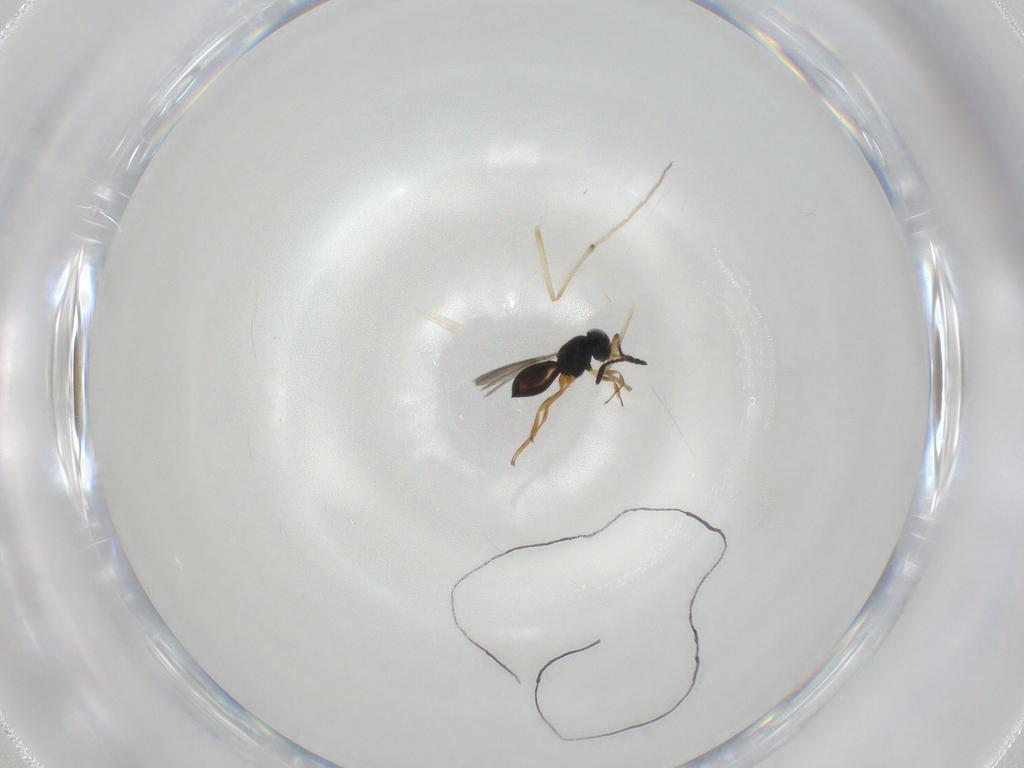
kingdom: Animalia
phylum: Arthropoda
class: Insecta
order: Hymenoptera
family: Scelionidae
